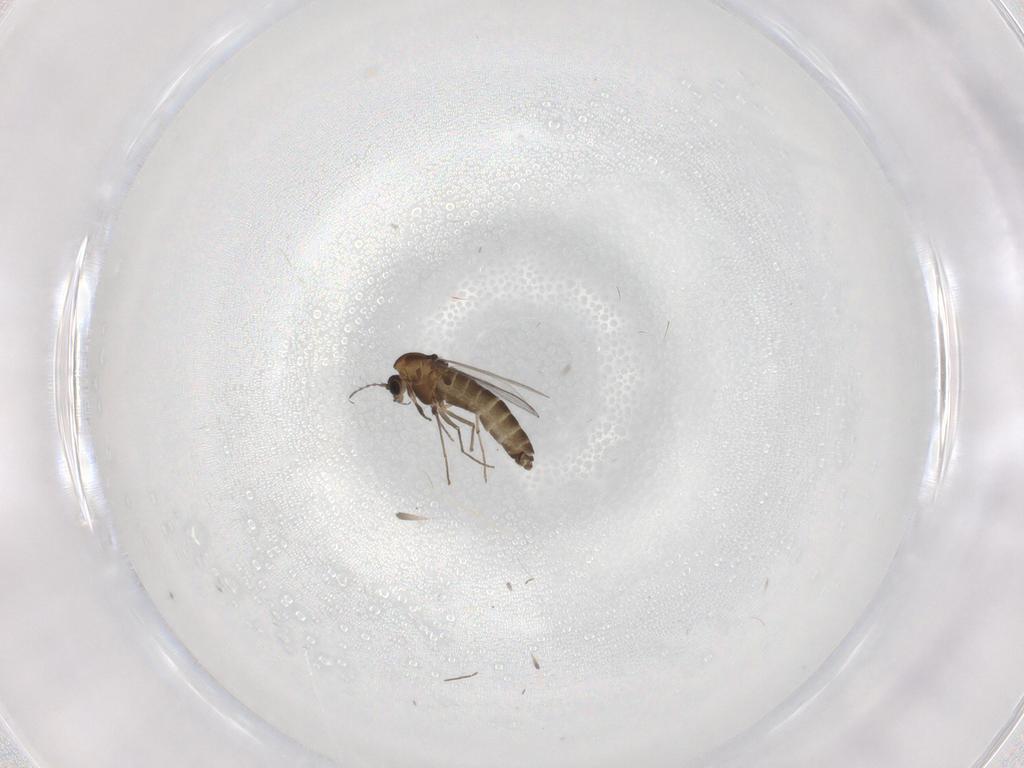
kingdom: Animalia
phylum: Arthropoda
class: Insecta
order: Diptera
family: Chironomidae
